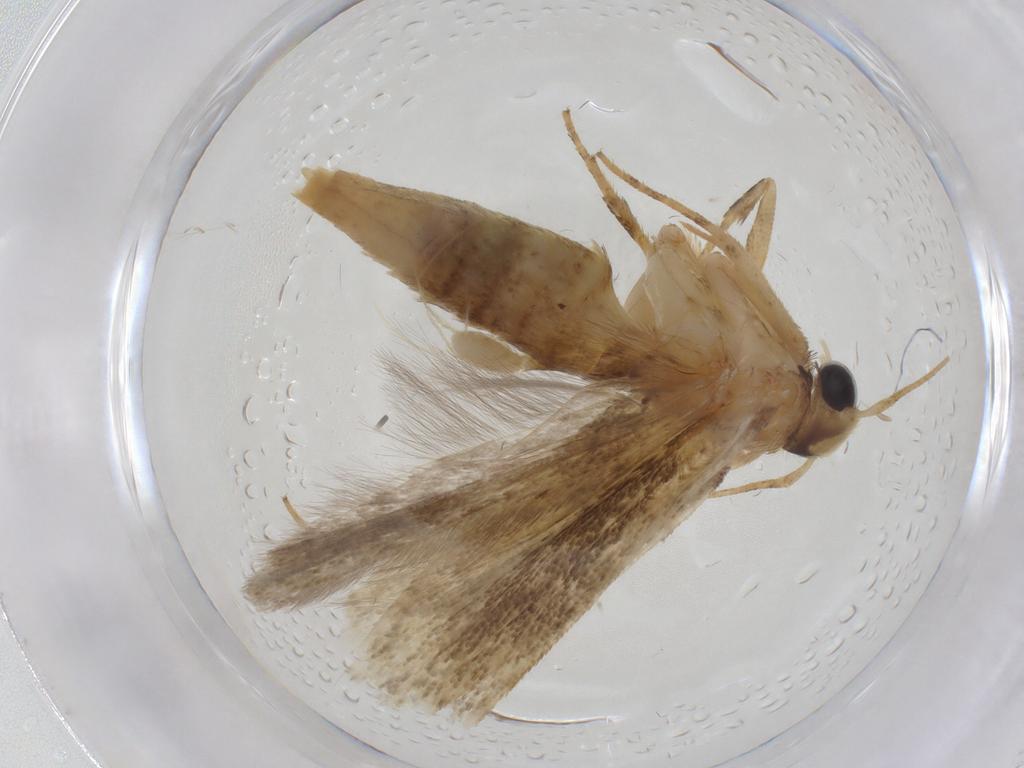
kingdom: Animalia
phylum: Arthropoda
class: Insecta
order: Lepidoptera
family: Gelechiidae
